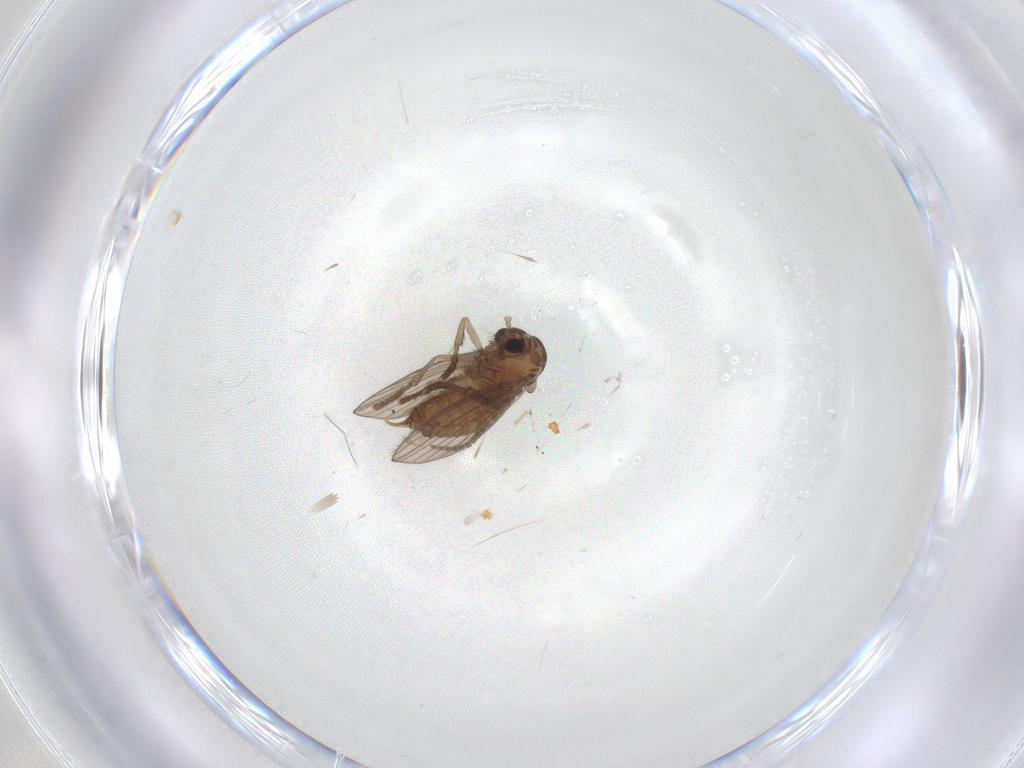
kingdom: Animalia
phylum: Arthropoda
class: Insecta
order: Diptera
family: Psychodidae
